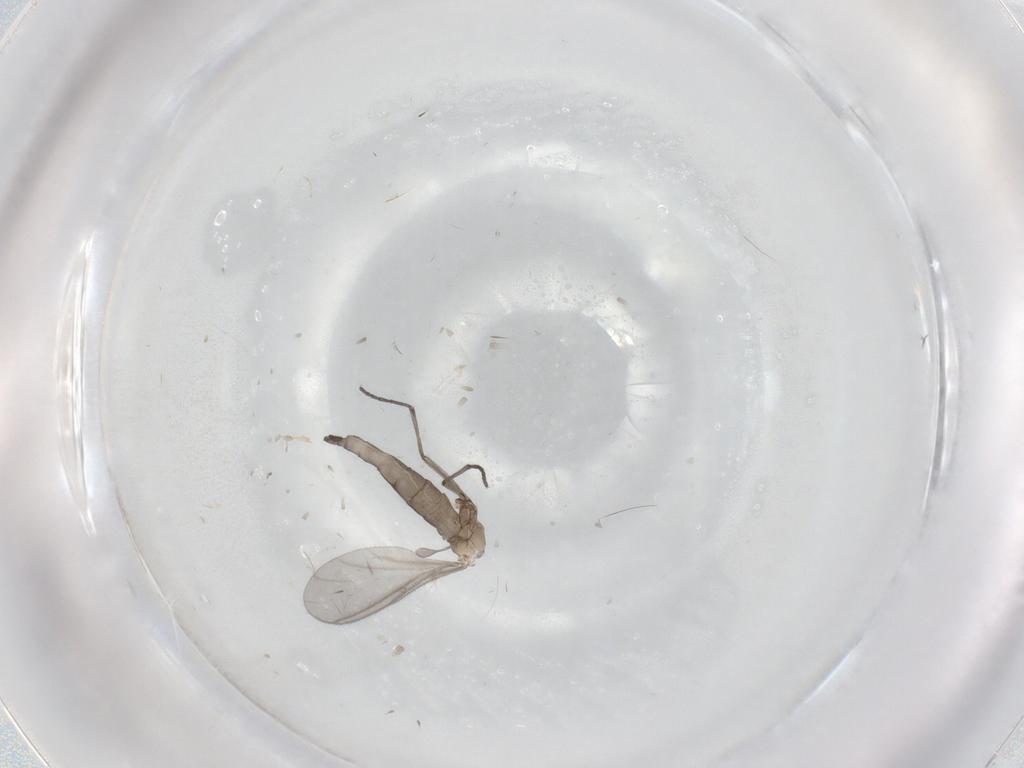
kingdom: Animalia
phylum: Arthropoda
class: Insecta
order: Diptera
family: Sciaridae
